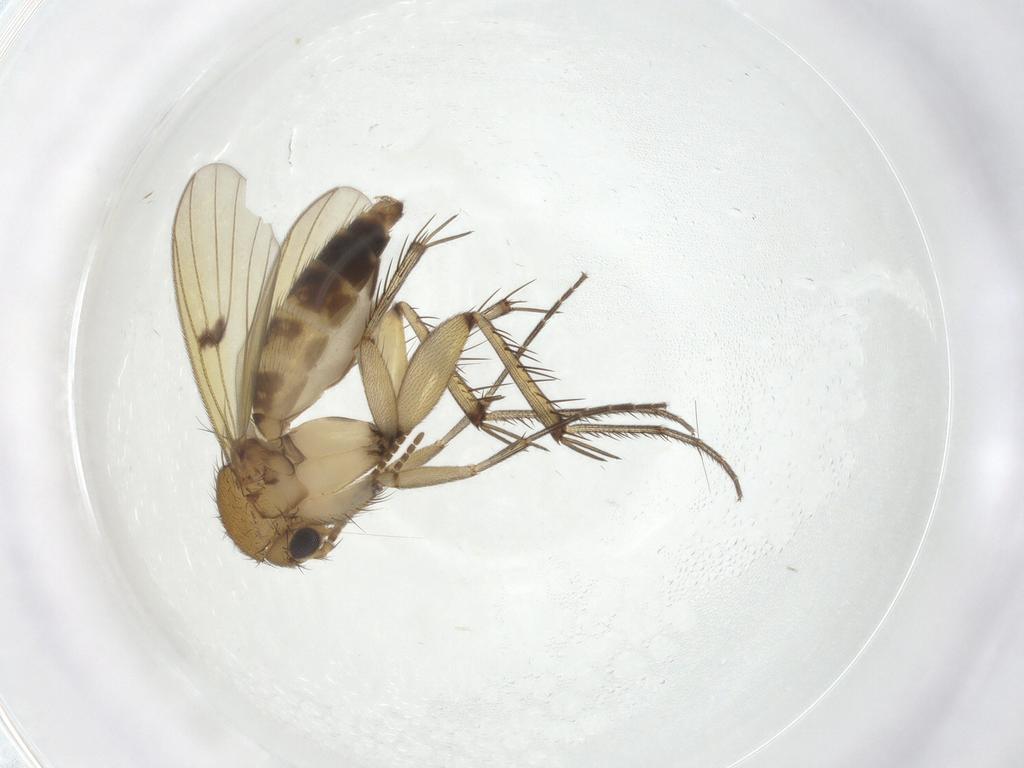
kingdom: Animalia
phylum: Arthropoda
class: Insecta
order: Diptera
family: Mycetophilidae
